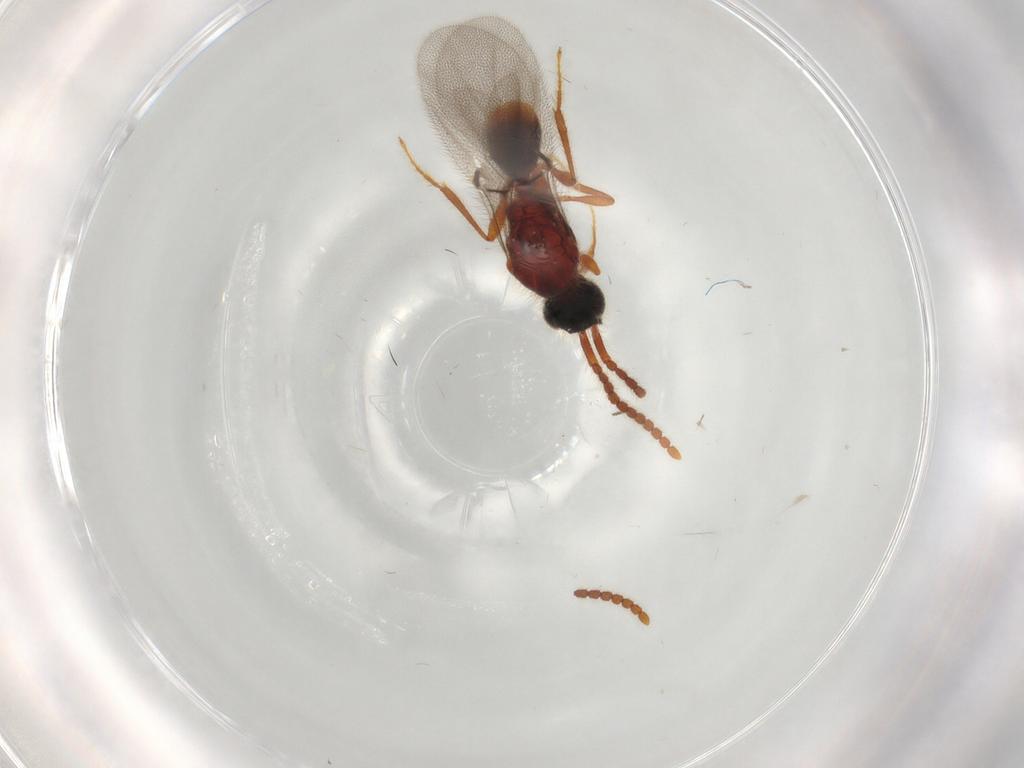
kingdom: Animalia
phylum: Arthropoda
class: Insecta
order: Hymenoptera
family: Diapriidae
